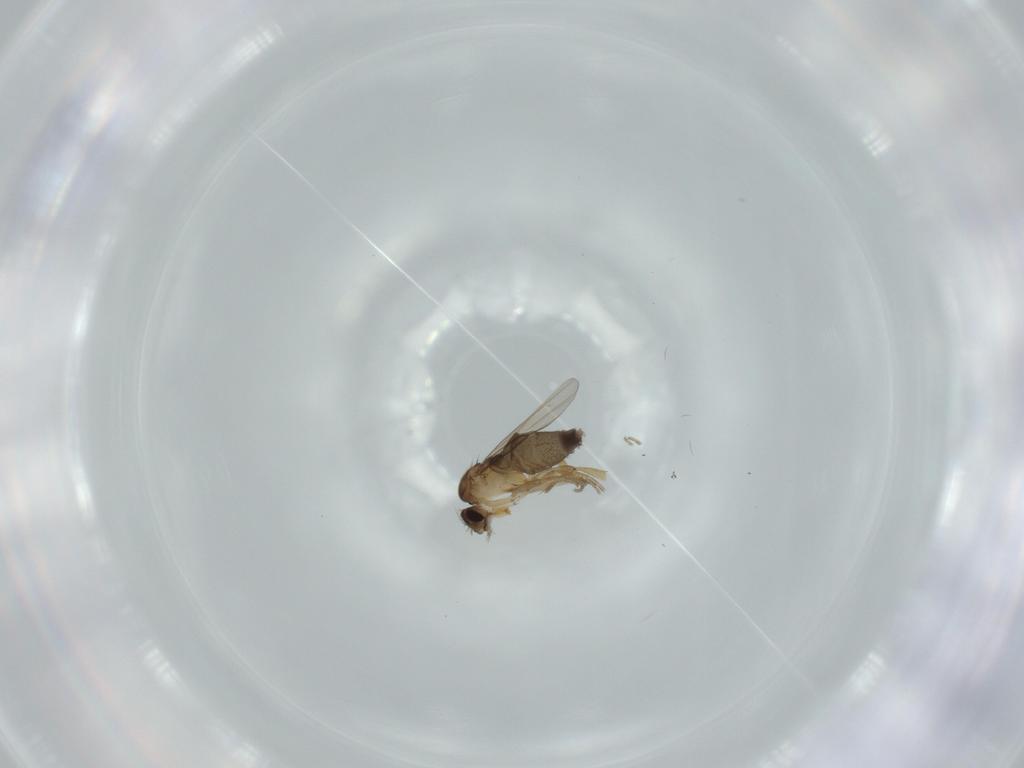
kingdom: Animalia
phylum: Arthropoda
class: Insecta
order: Diptera
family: Phoridae
